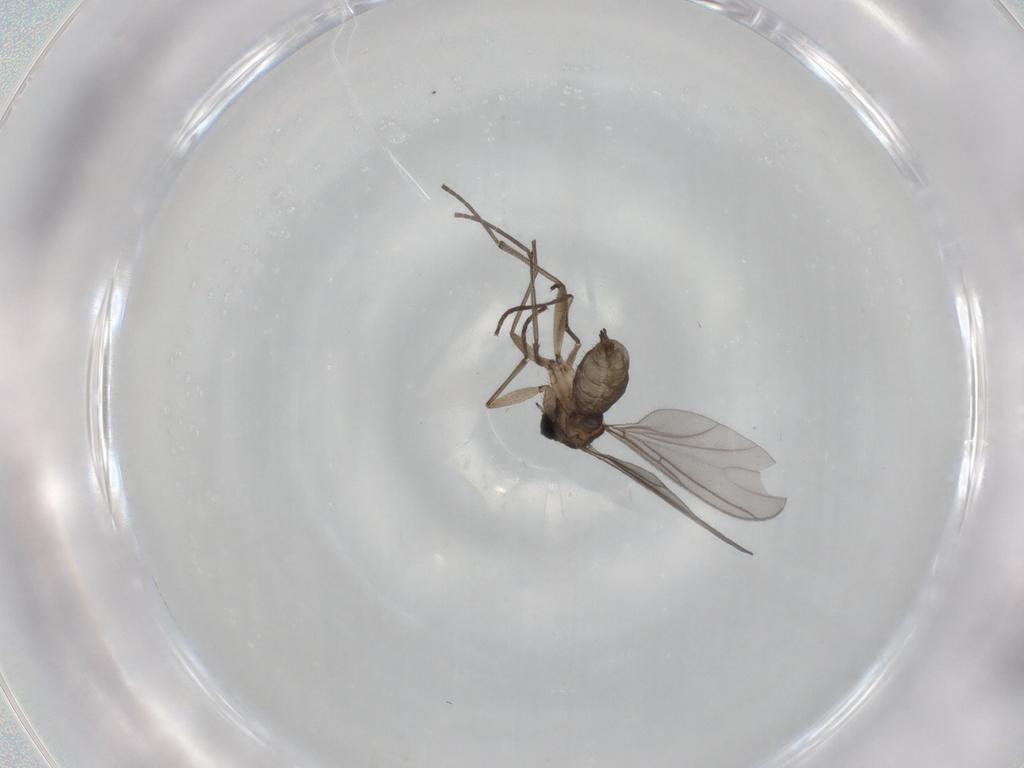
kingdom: Animalia
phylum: Arthropoda
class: Insecta
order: Diptera
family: Sciaridae
